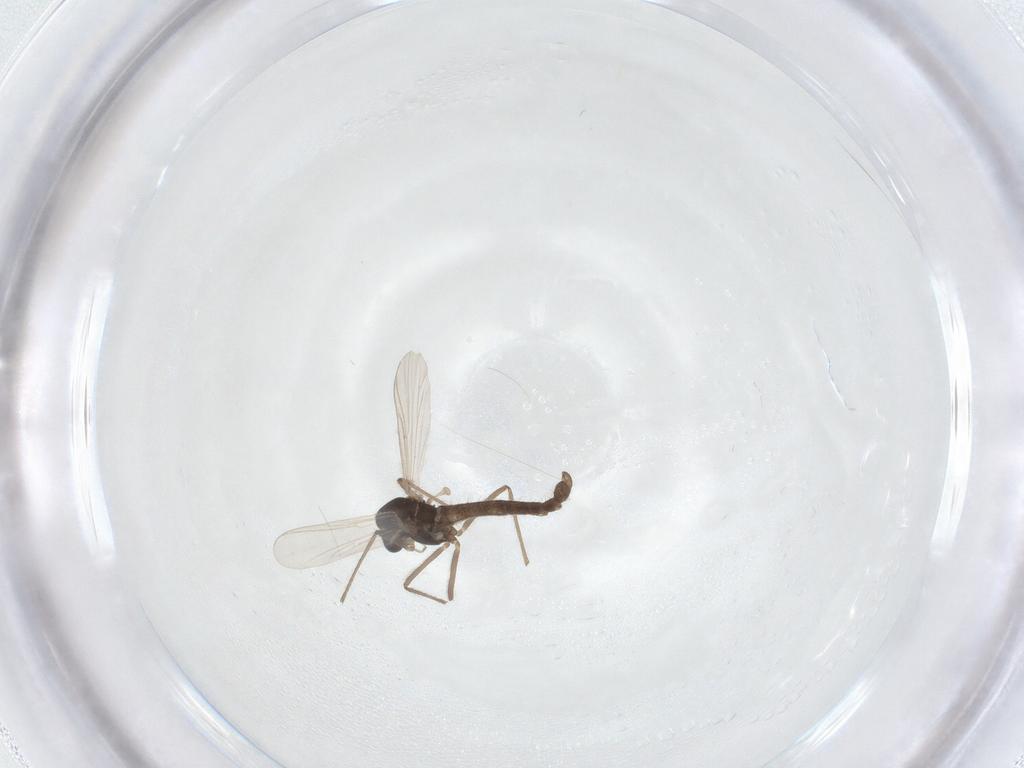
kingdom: Animalia
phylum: Arthropoda
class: Insecta
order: Diptera
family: Chironomidae
